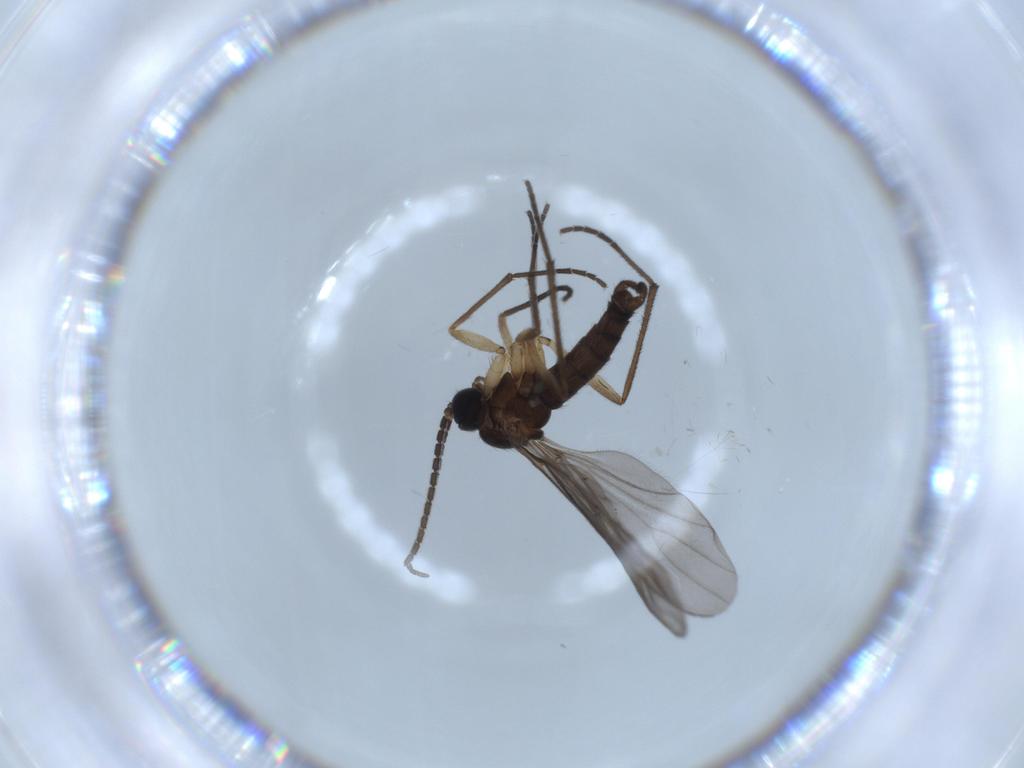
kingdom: Animalia
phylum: Arthropoda
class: Insecta
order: Diptera
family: Sciaridae
